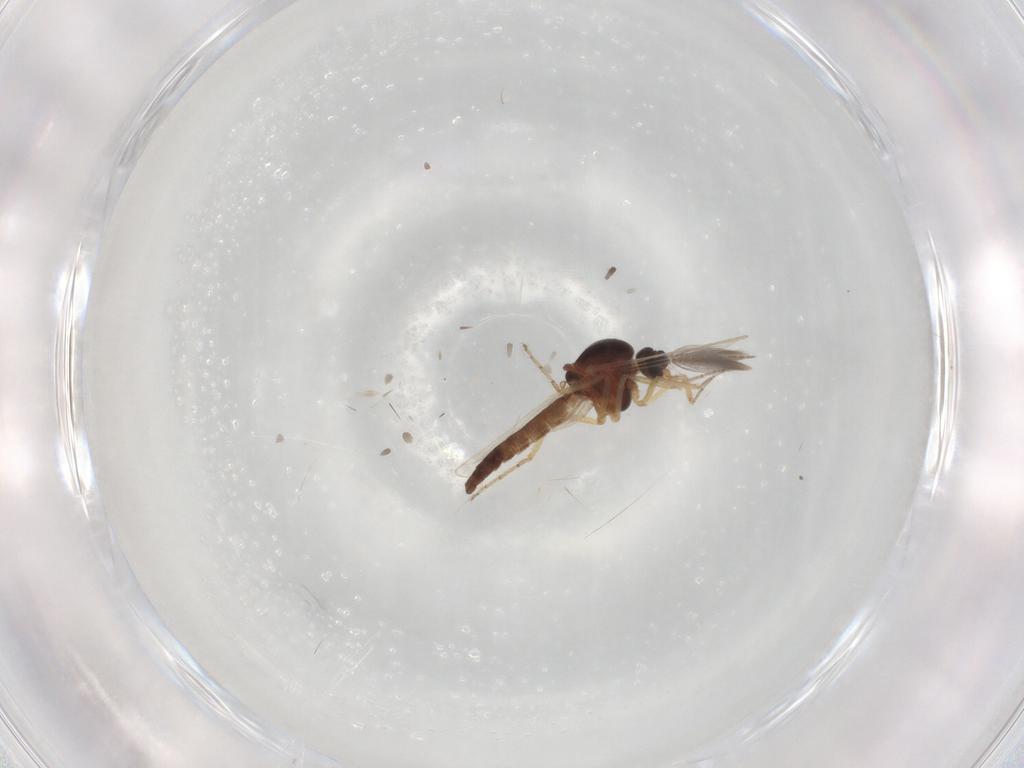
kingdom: Animalia
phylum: Arthropoda
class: Insecta
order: Diptera
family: Ceratopogonidae
